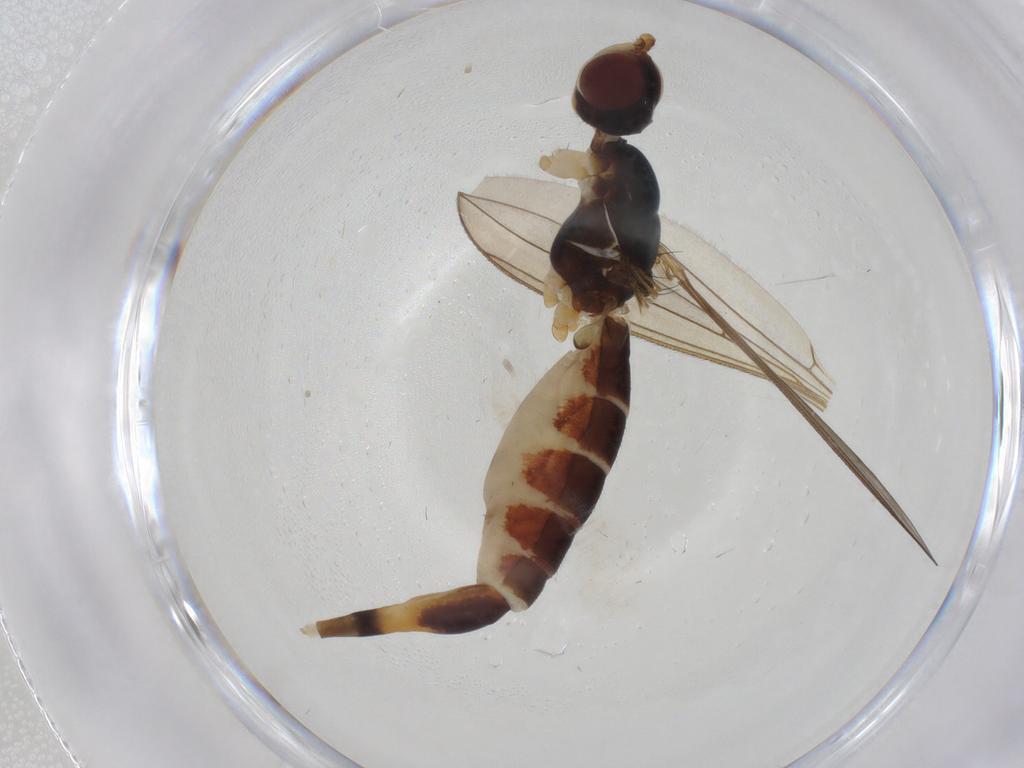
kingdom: Animalia
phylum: Arthropoda
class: Insecta
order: Diptera
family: Micropezidae
